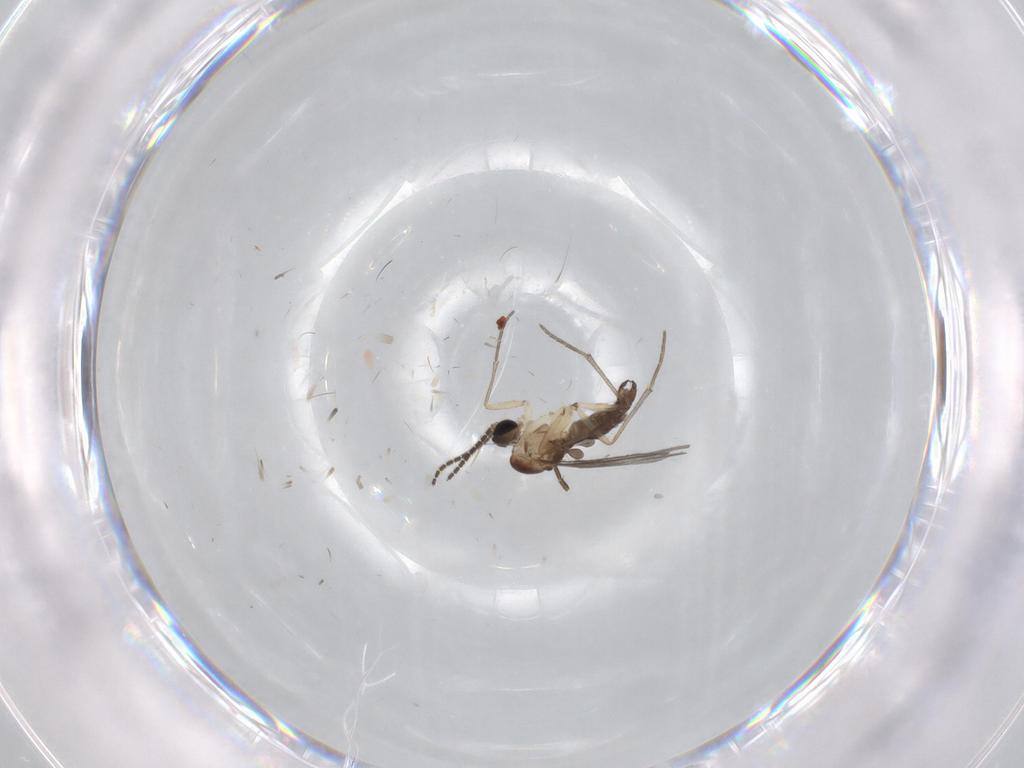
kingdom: Animalia
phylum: Arthropoda
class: Insecta
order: Diptera
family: Phoridae
